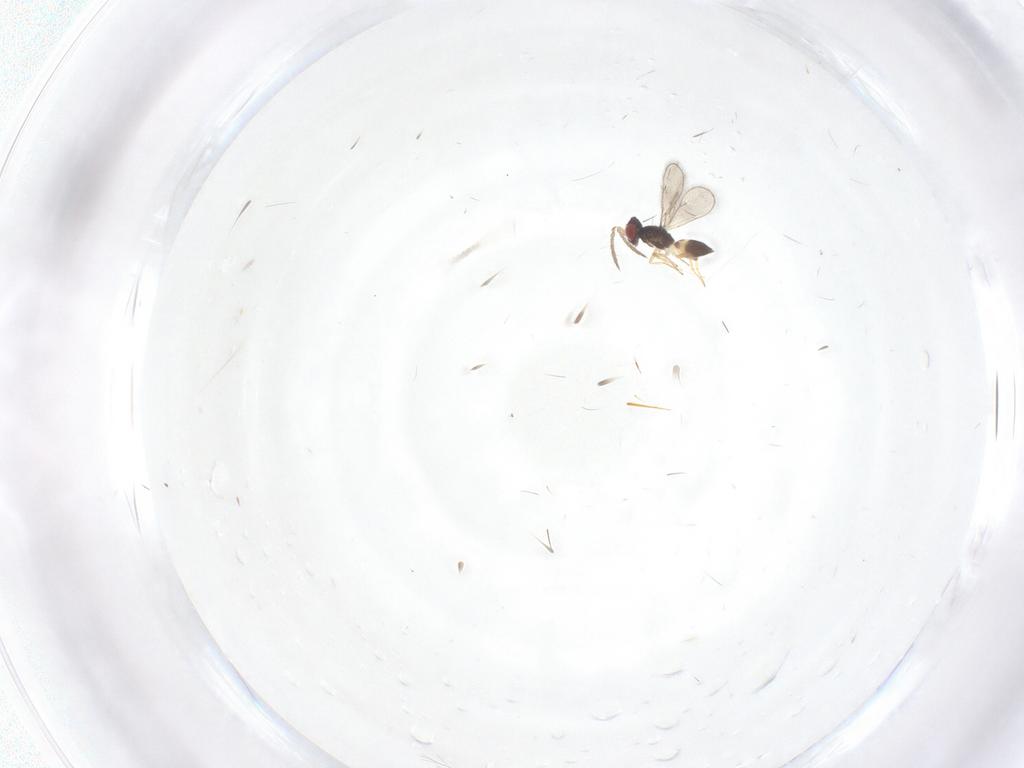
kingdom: Animalia
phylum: Arthropoda
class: Insecta
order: Hymenoptera
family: Eulophidae
